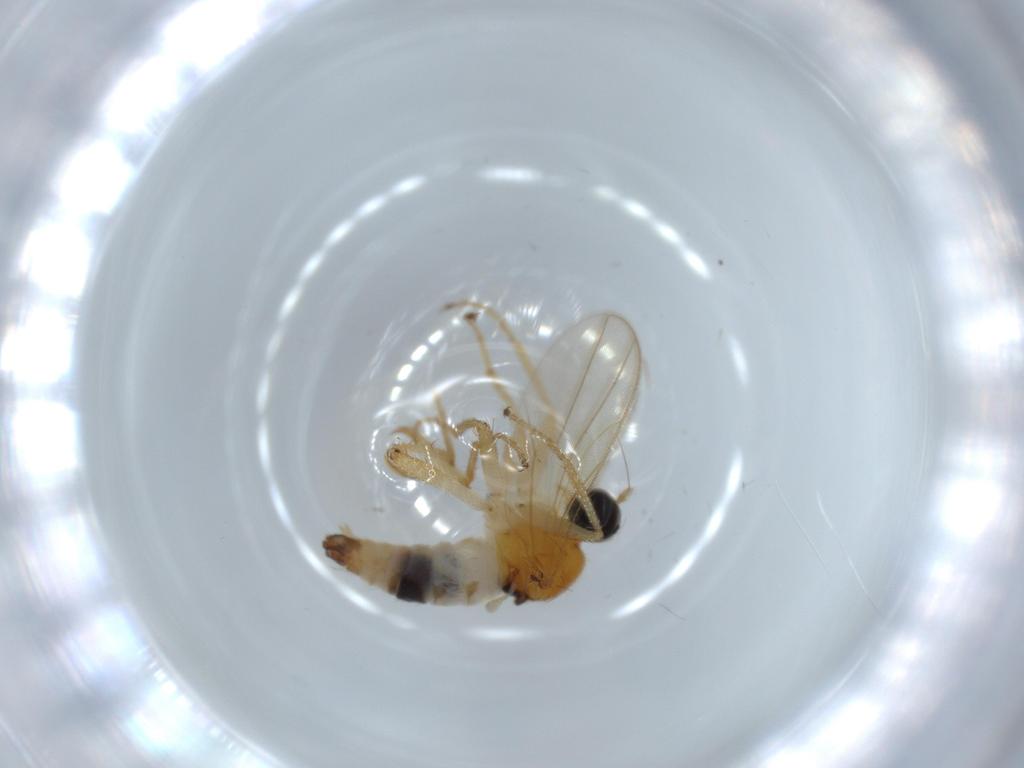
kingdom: Animalia
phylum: Arthropoda
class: Insecta
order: Diptera
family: Hybotidae
